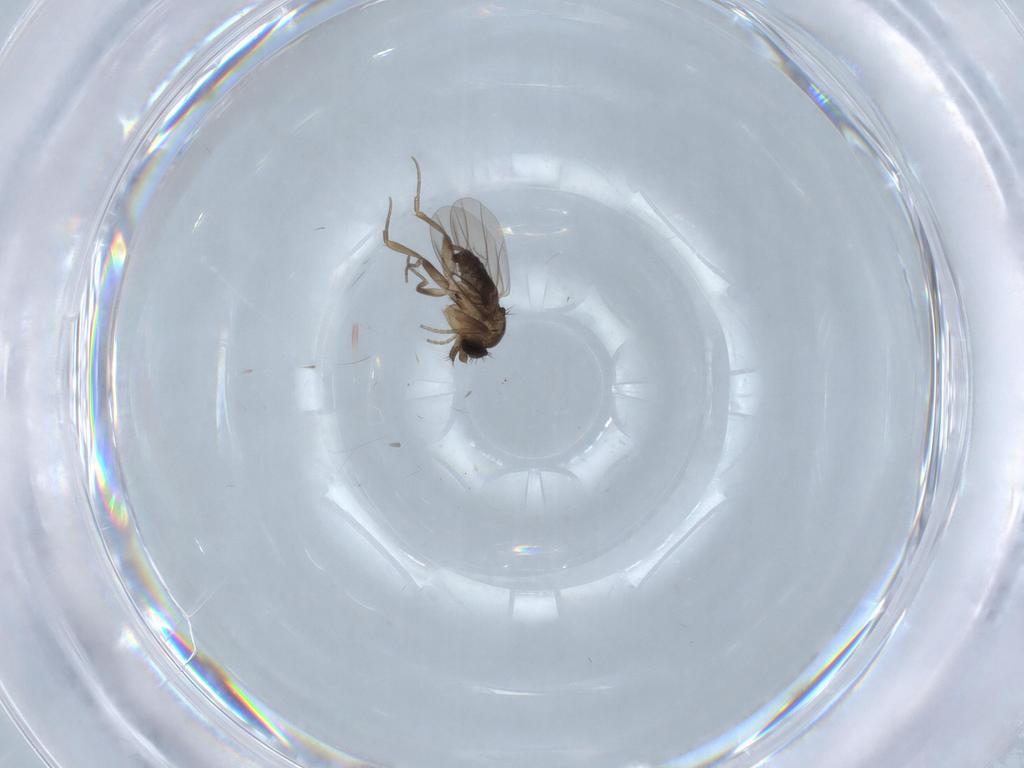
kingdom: Animalia
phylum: Arthropoda
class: Insecta
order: Diptera
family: Phoridae
